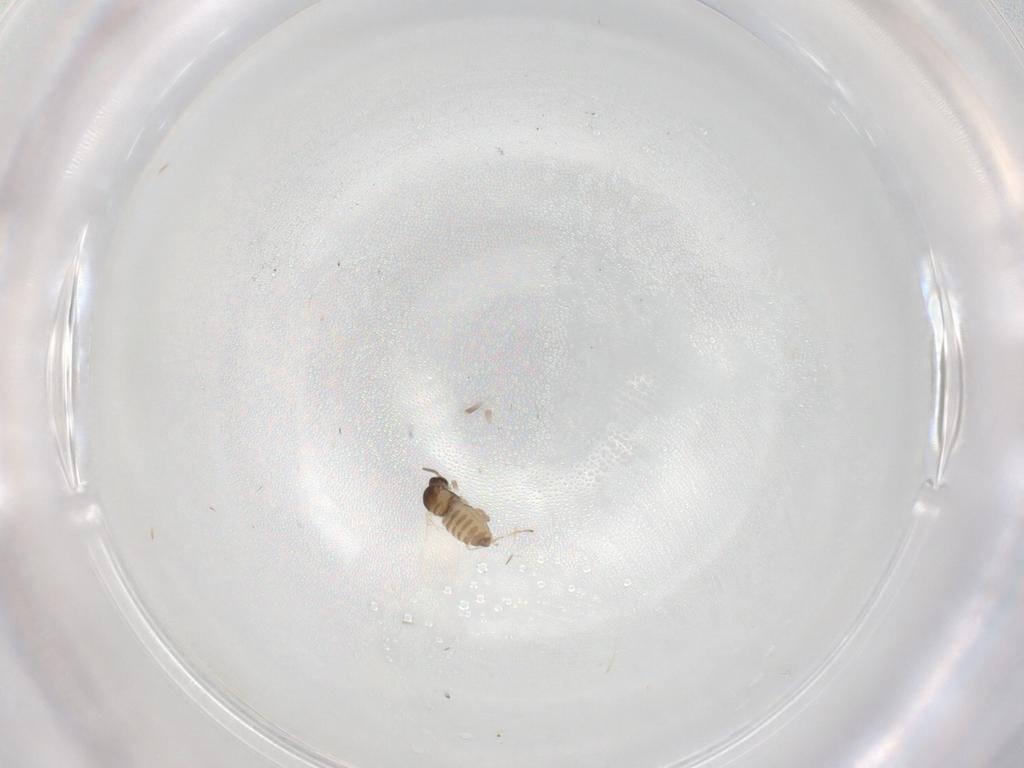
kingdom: Animalia
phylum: Arthropoda
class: Insecta
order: Diptera
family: Cecidomyiidae
